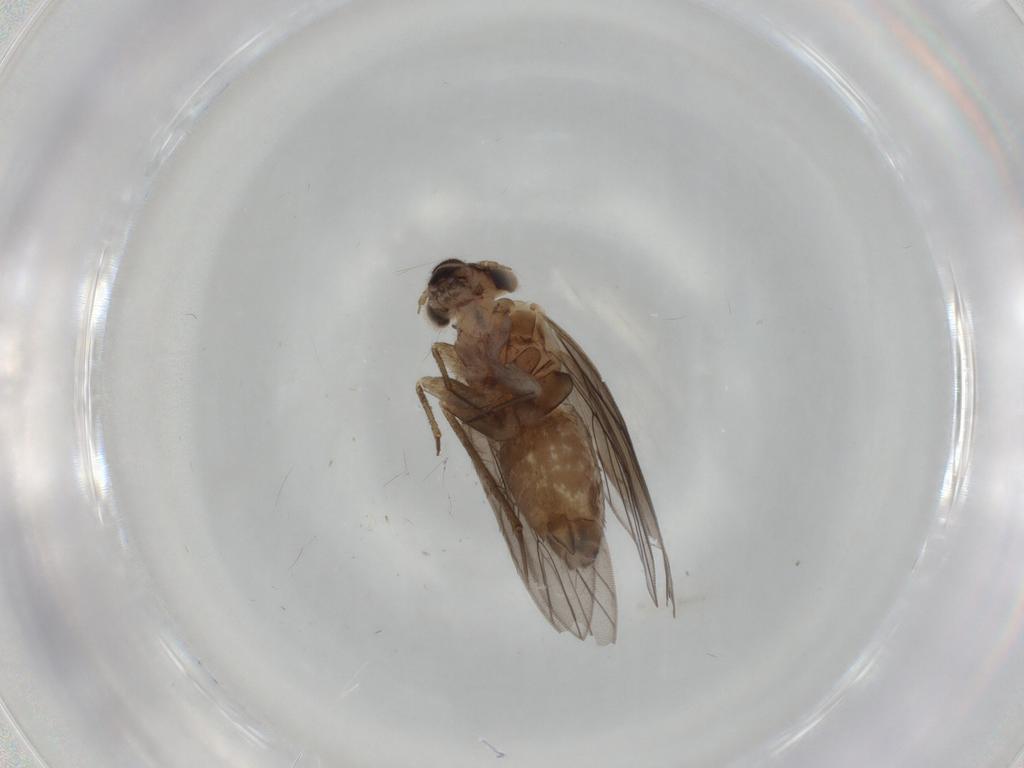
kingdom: Animalia
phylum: Arthropoda
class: Insecta
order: Psocodea
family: Lepidopsocidae
